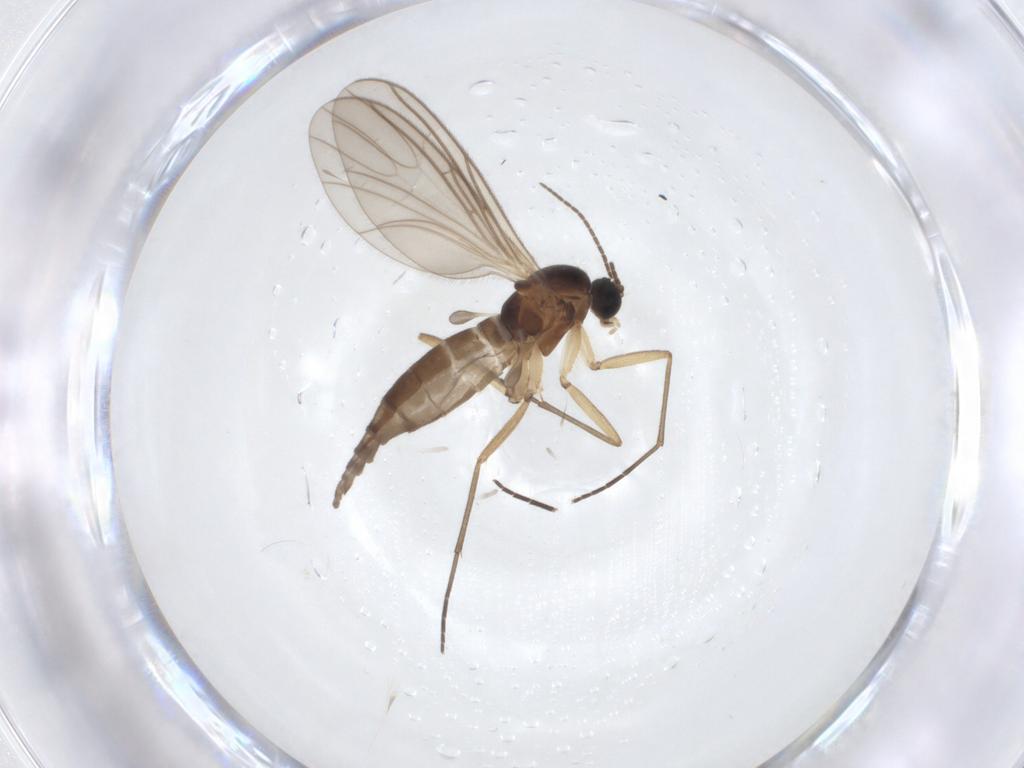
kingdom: Animalia
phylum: Arthropoda
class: Insecta
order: Diptera
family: Sciaridae
